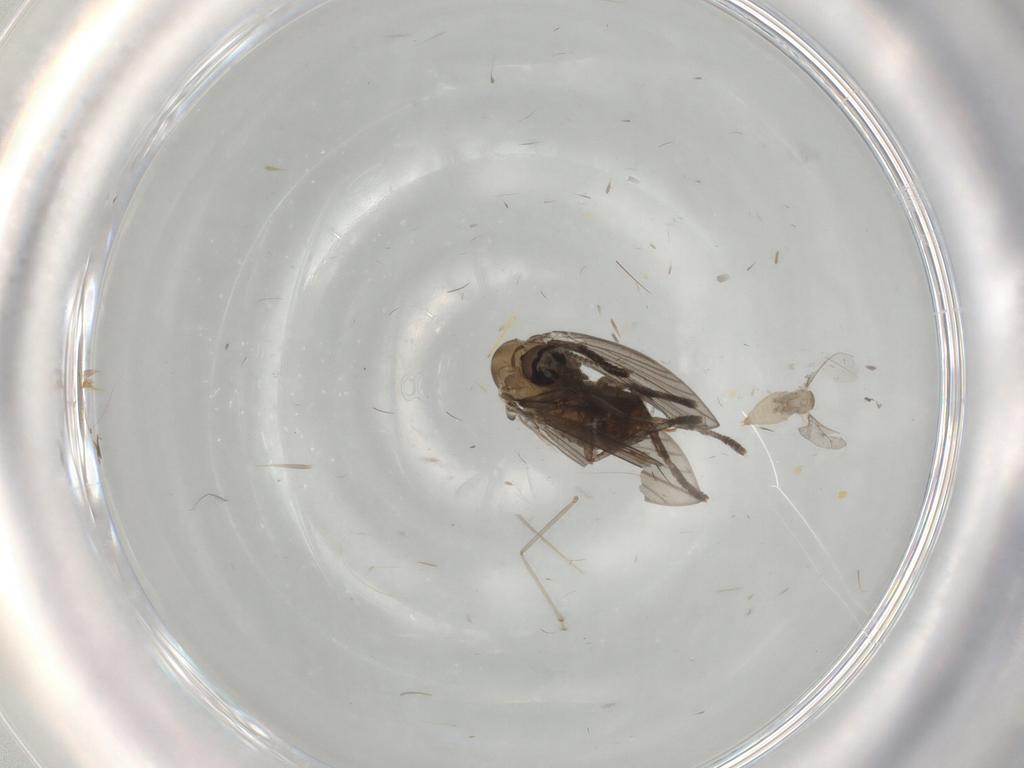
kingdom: Animalia
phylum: Arthropoda
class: Insecta
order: Diptera
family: Cecidomyiidae
